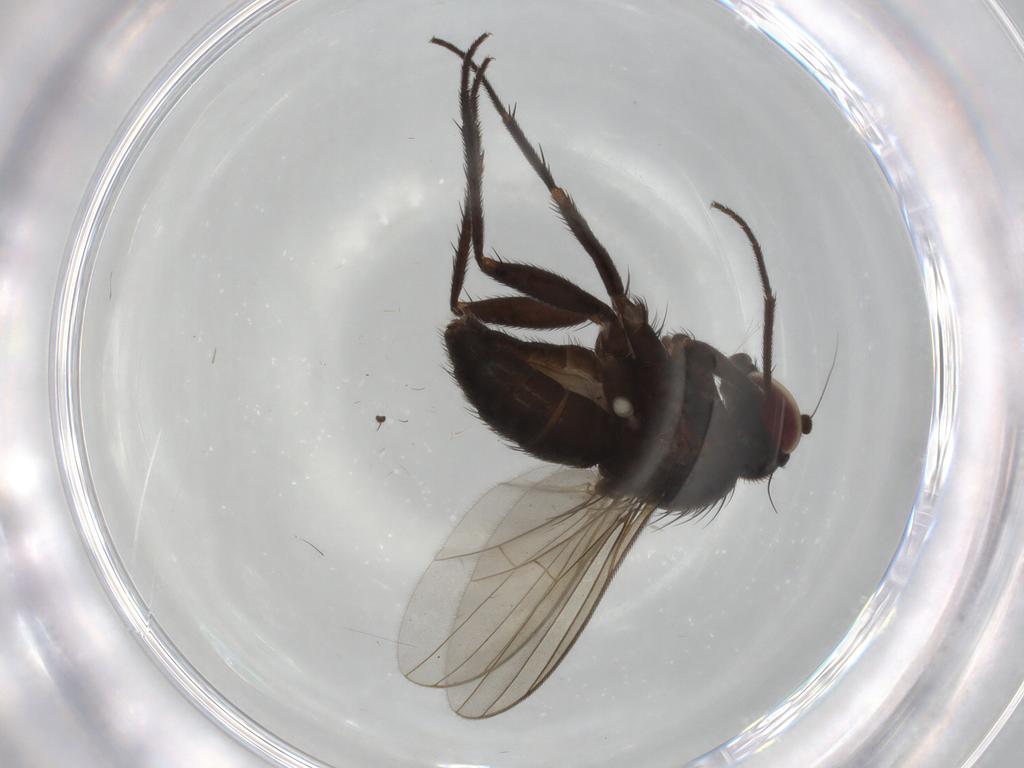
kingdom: Animalia
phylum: Arthropoda
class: Insecta
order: Diptera
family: Dolichopodidae
